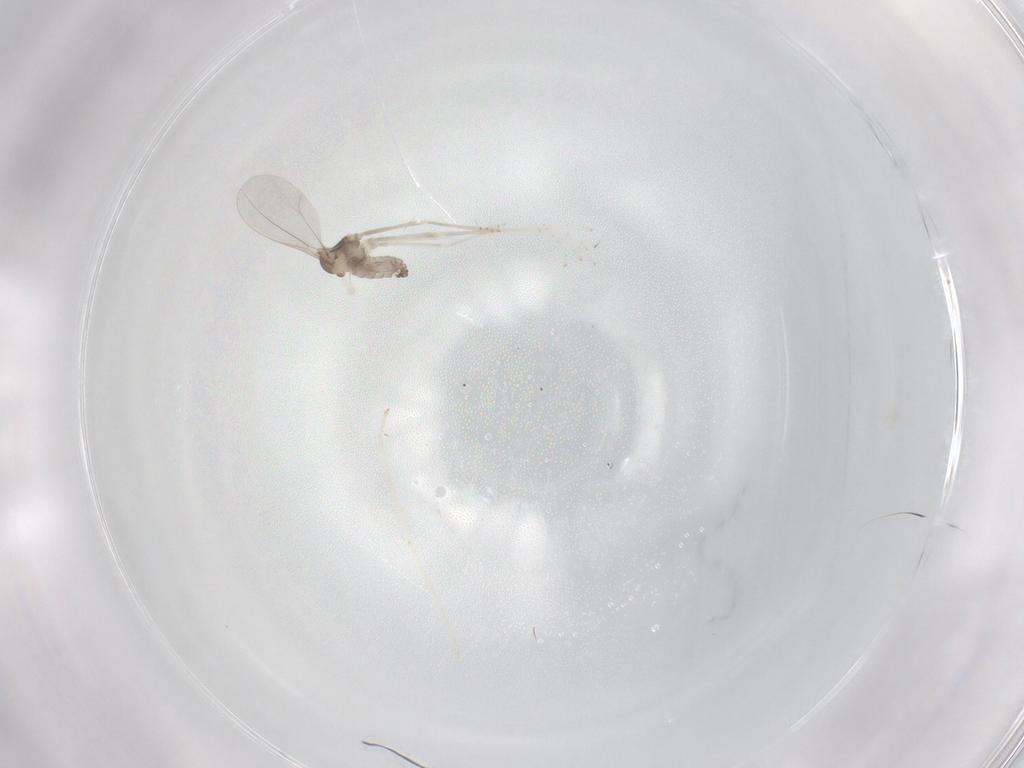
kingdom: Animalia
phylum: Arthropoda
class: Insecta
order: Diptera
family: Cecidomyiidae
